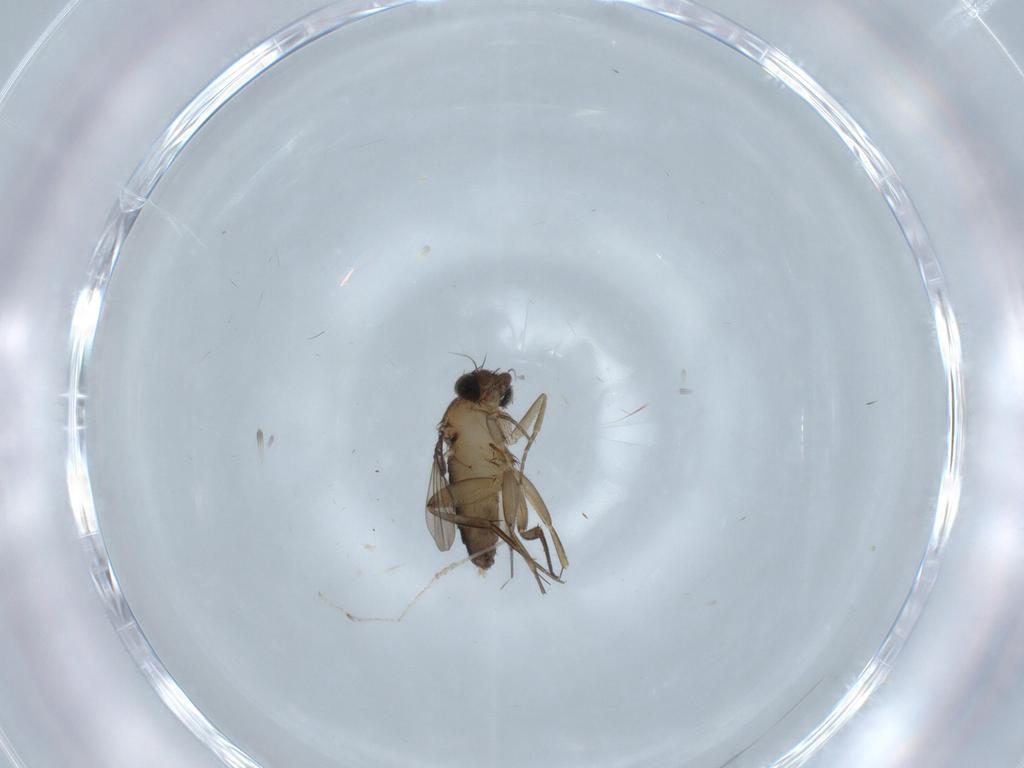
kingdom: Animalia
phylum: Arthropoda
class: Insecta
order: Diptera
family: Phoridae
